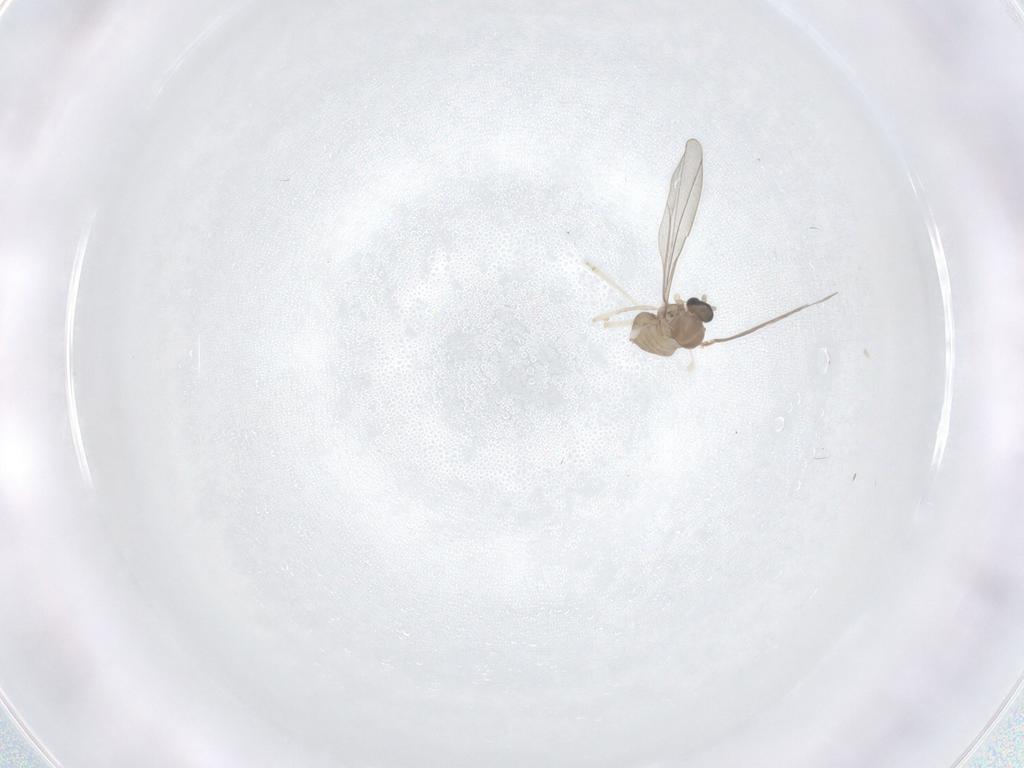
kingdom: Animalia
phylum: Arthropoda
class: Insecta
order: Diptera
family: Cecidomyiidae
